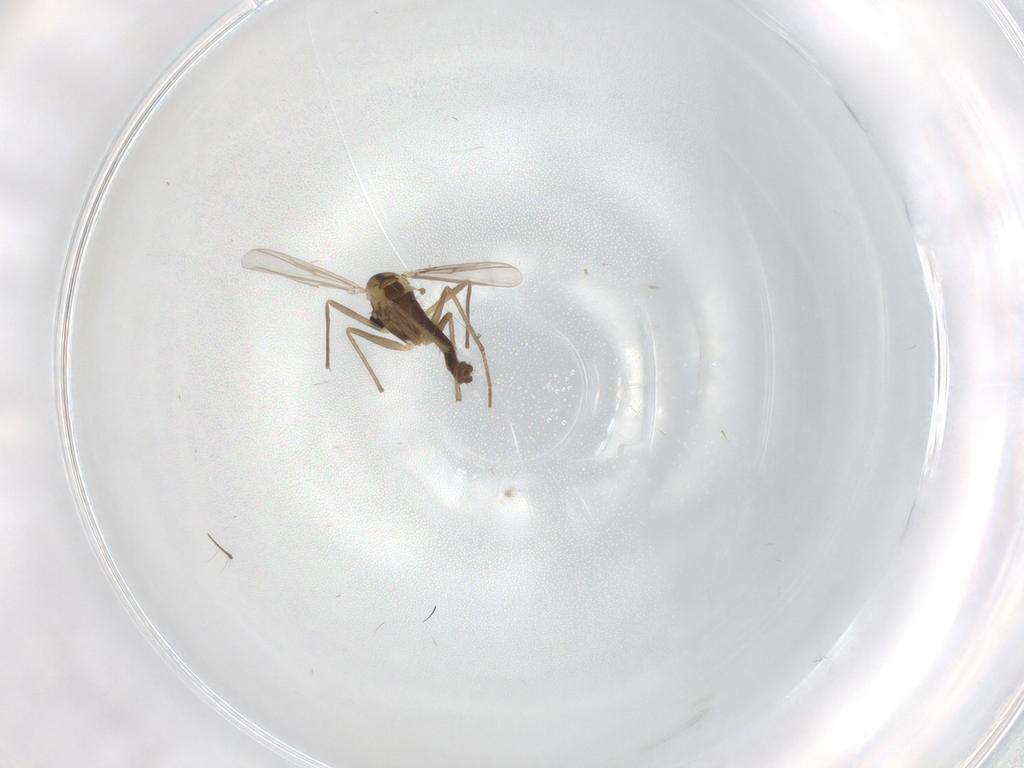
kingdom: Animalia
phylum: Arthropoda
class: Insecta
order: Diptera
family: Chironomidae
